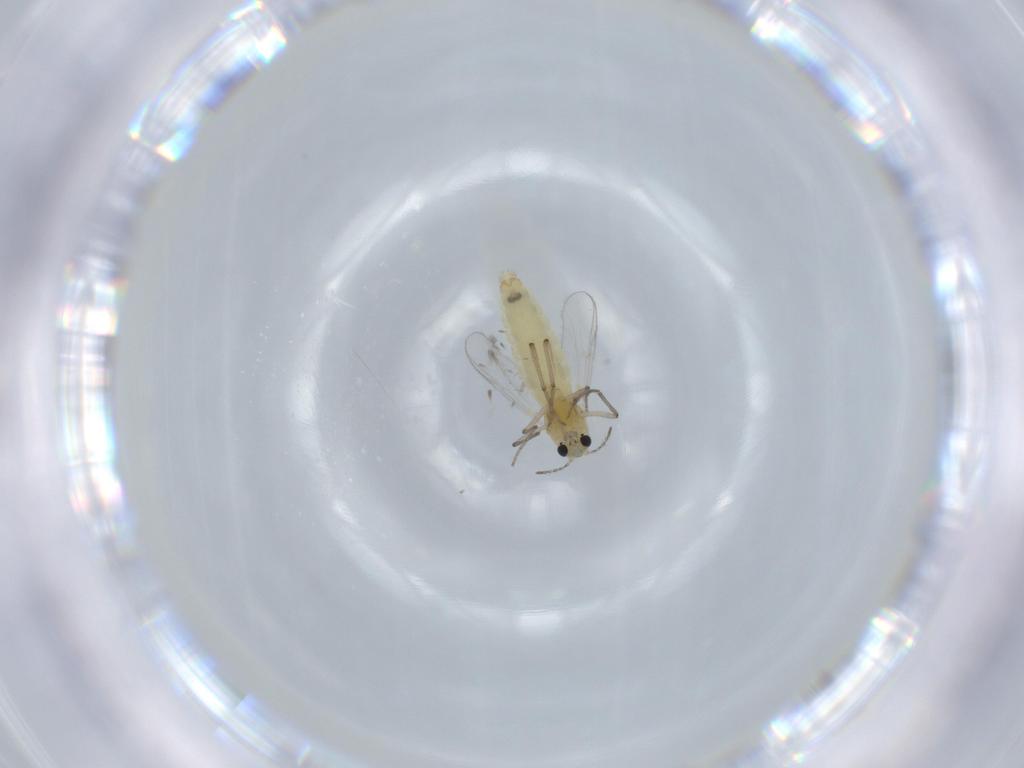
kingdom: Animalia
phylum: Arthropoda
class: Insecta
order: Diptera
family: Chironomidae
